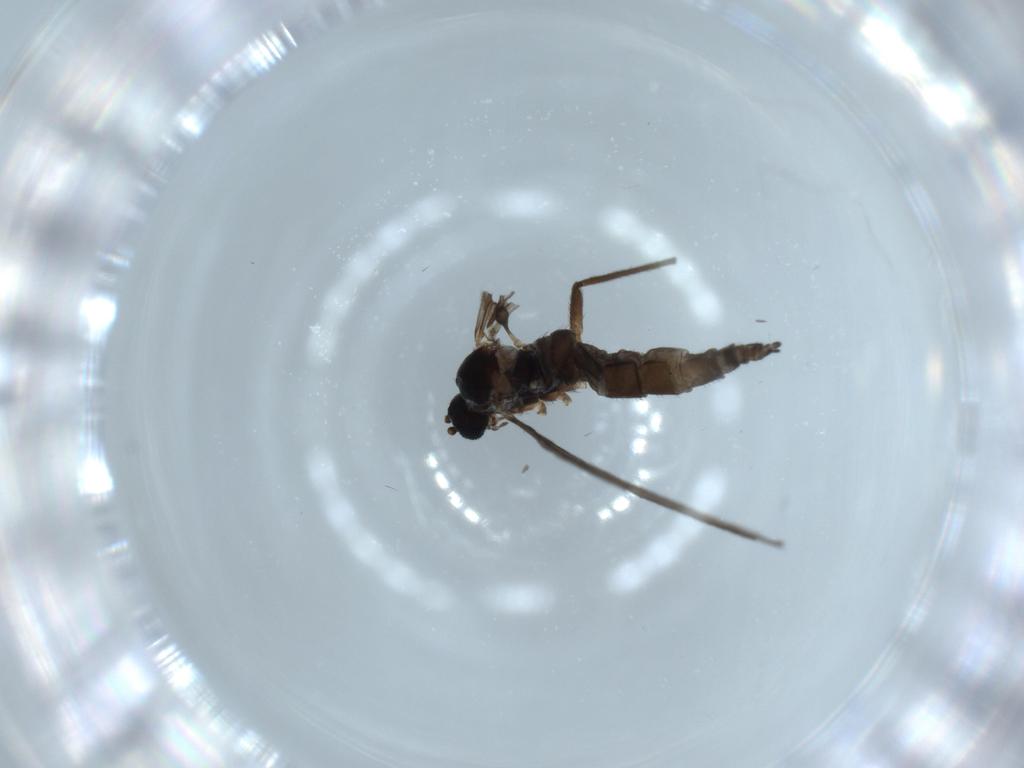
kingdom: Animalia
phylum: Arthropoda
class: Insecta
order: Diptera
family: Sciaridae
